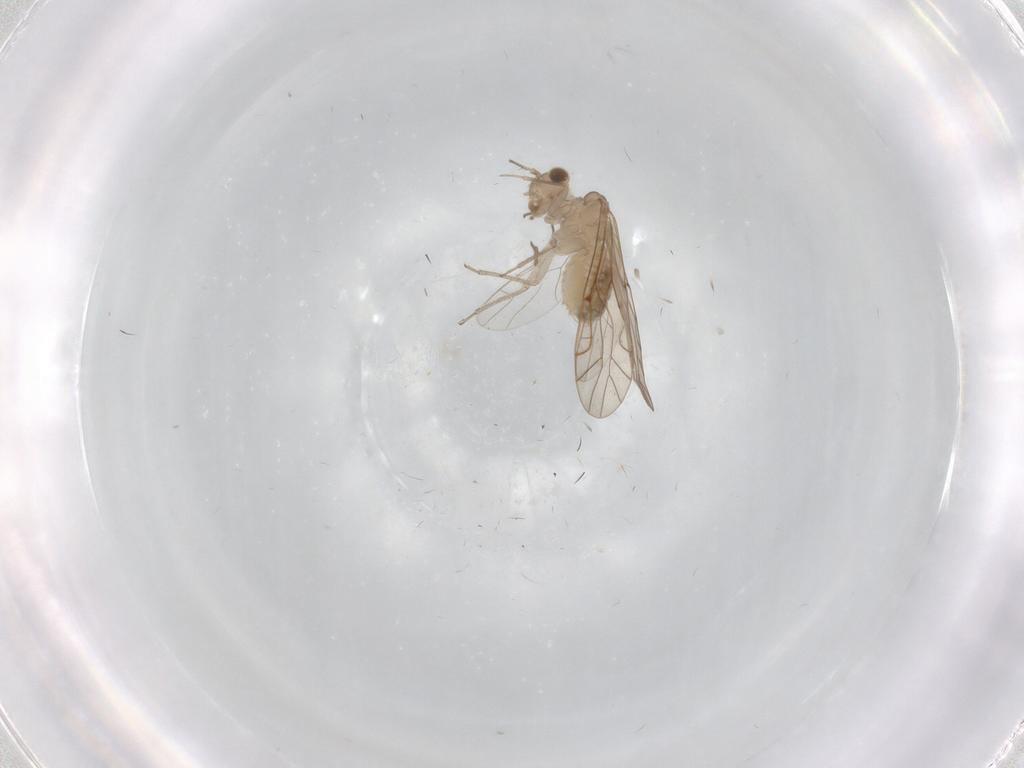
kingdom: Animalia
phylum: Arthropoda
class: Insecta
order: Psocodea
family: Lachesillidae
